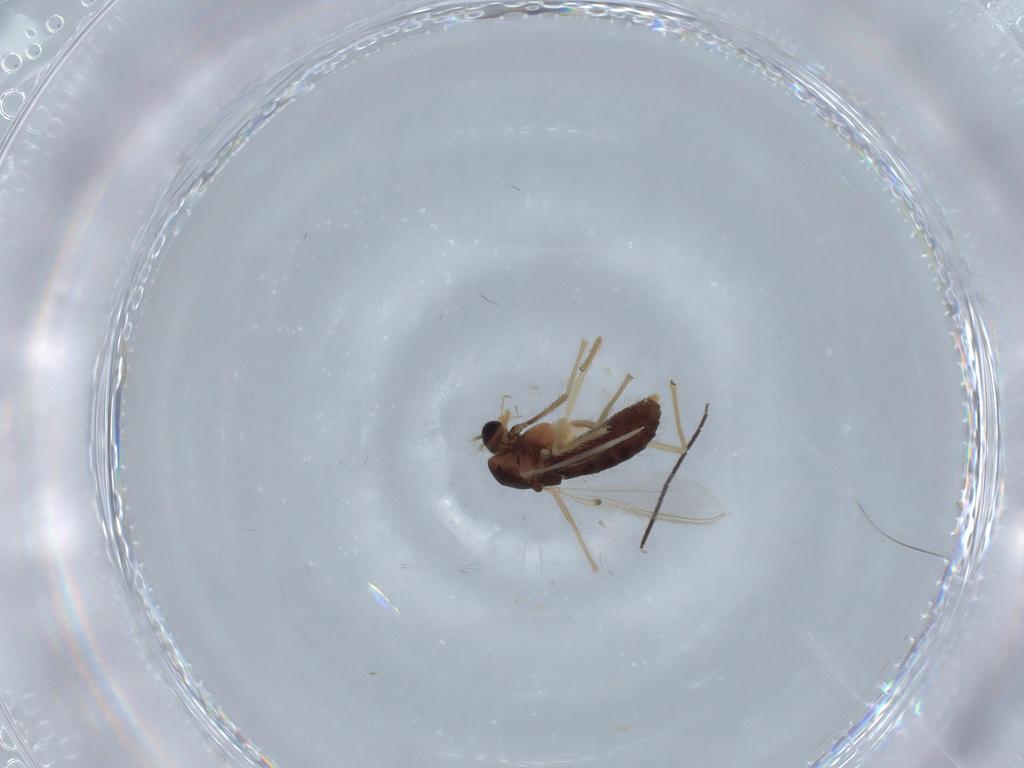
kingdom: Animalia
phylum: Arthropoda
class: Insecta
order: Diptera
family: Chironomidae
